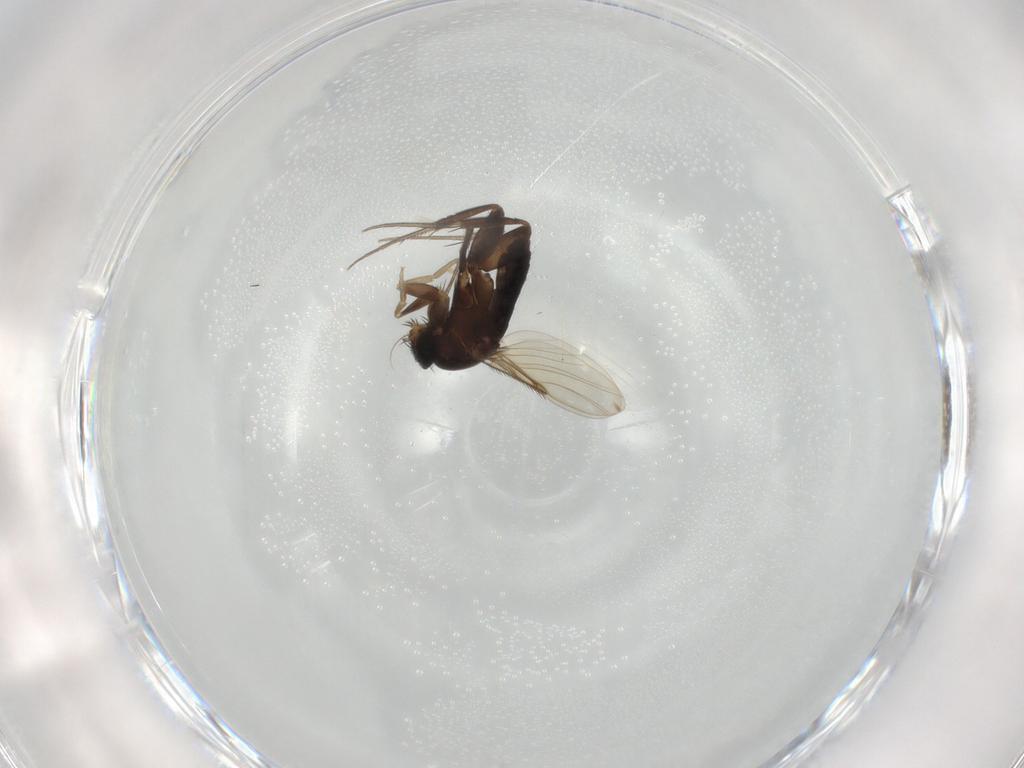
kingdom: Animalia
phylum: Arthropoda
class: Insecta
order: Diptera
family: Phoridae
